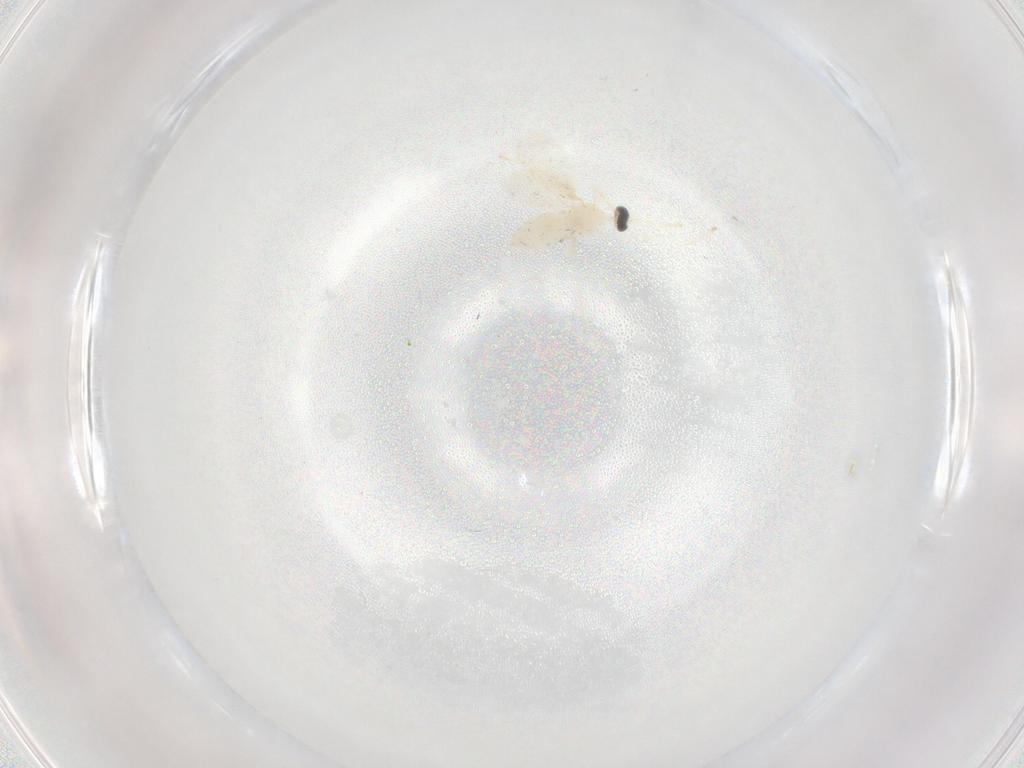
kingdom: Animalia
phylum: Arthropoda
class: Insecta
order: Diptera
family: Cecidomyiidae
